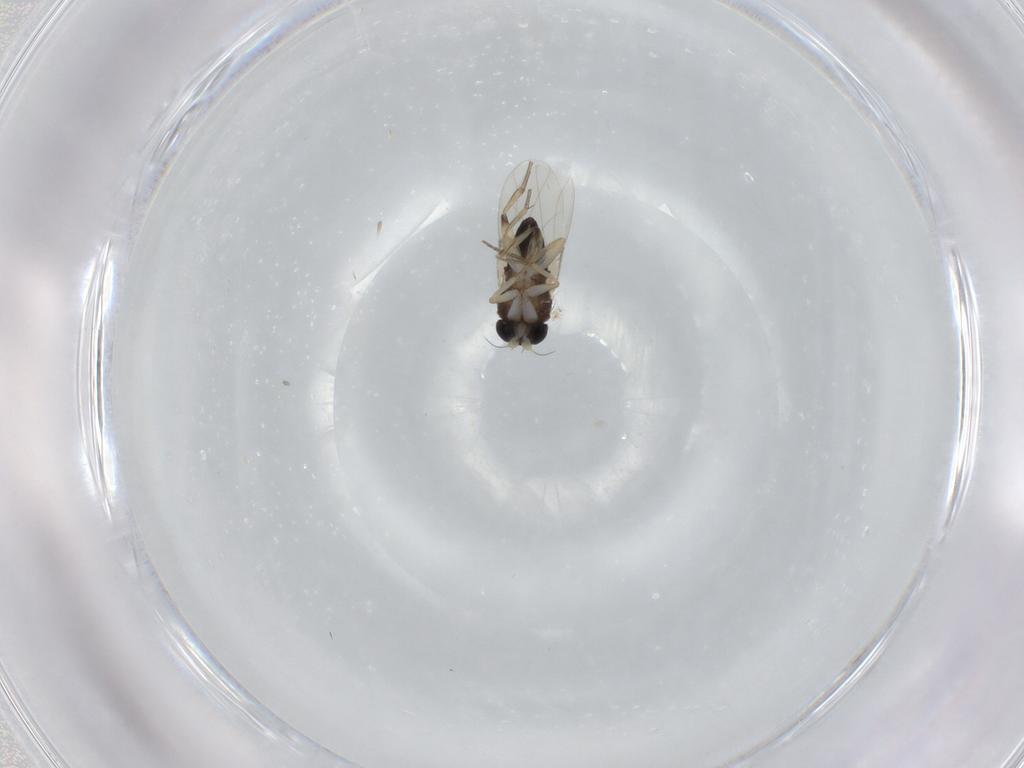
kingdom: Animalia
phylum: Arthropoda
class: Insecta
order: Diptera
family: Phoridae
